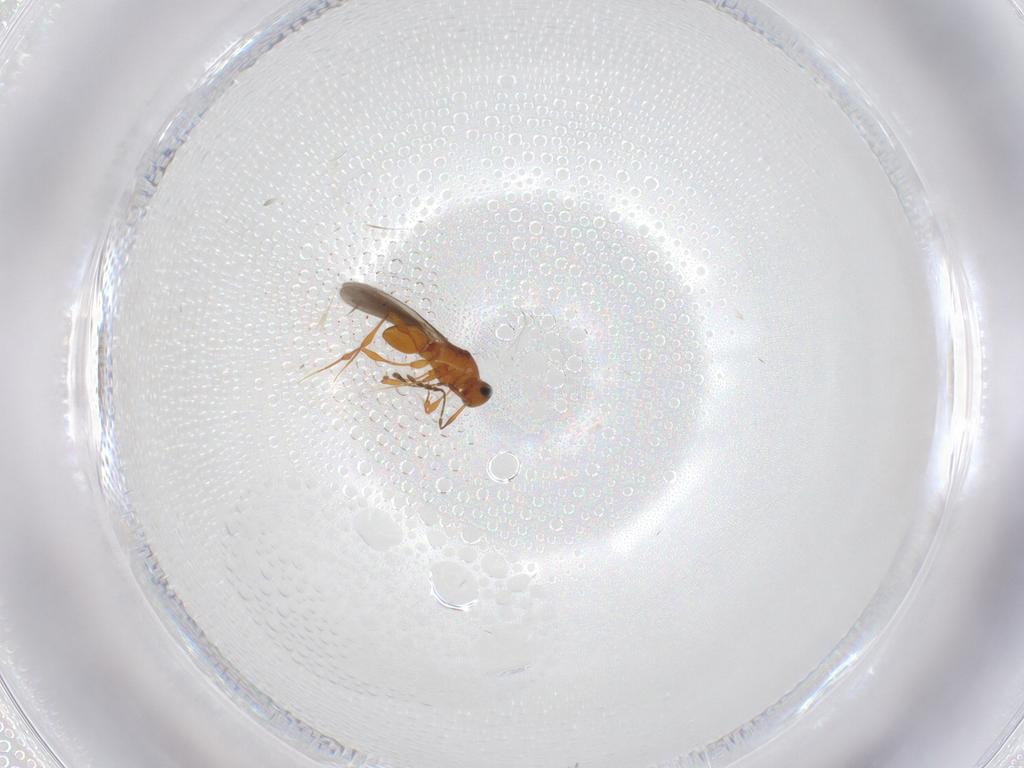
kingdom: Animalia
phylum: Arthropoda
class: Insecta
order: Hymenoptera
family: Platygastridae
